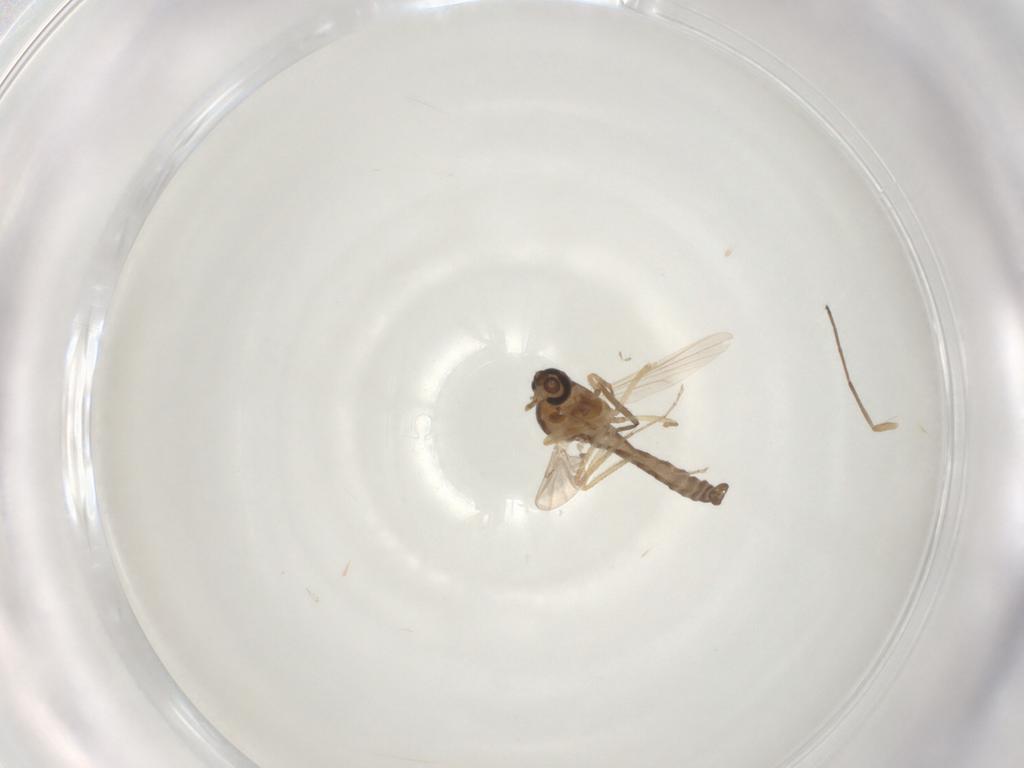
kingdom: Animalia
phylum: Arthropoda
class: Insecta
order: Diptera
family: Ceratopogonidae
